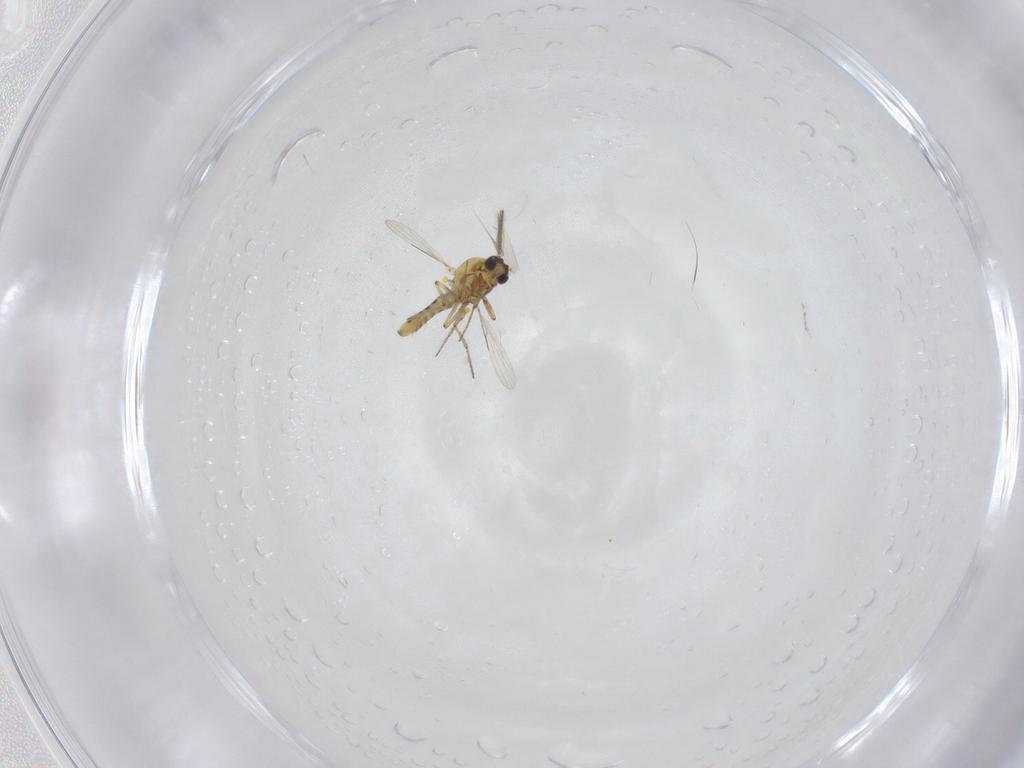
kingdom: Animalia
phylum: Arthropoda
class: Insecta
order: Diptera
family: Ceratopogonidae
